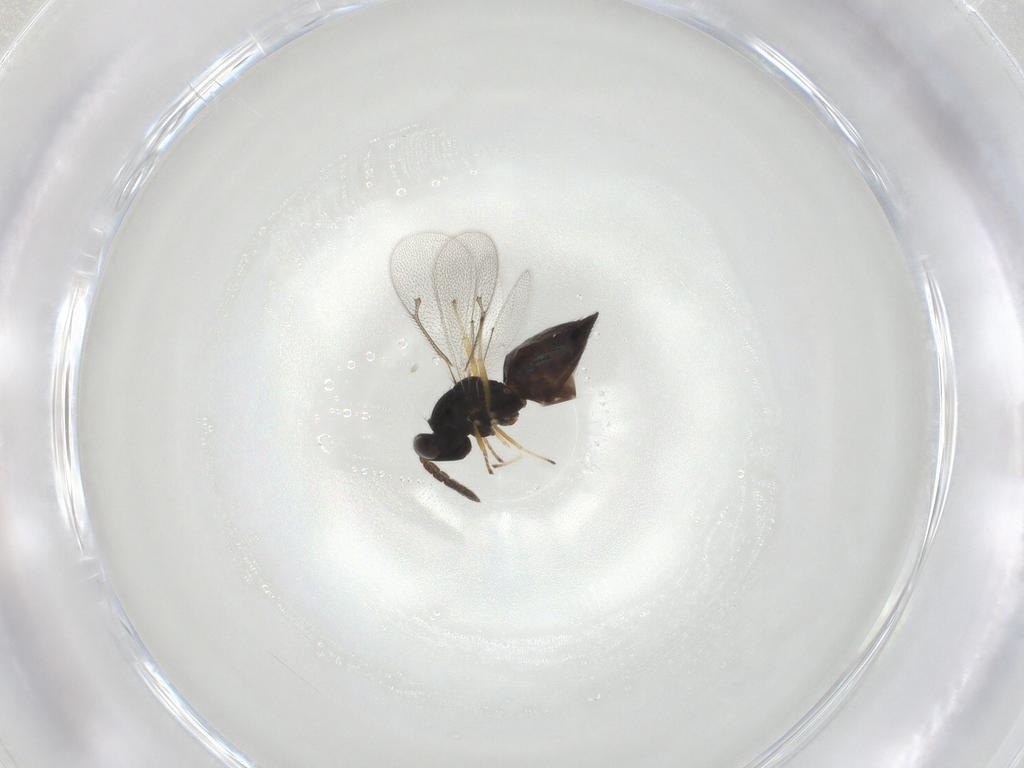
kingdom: Animalia
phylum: Arthropoda
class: Insecta
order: Hymenoptera
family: Eulophidae
